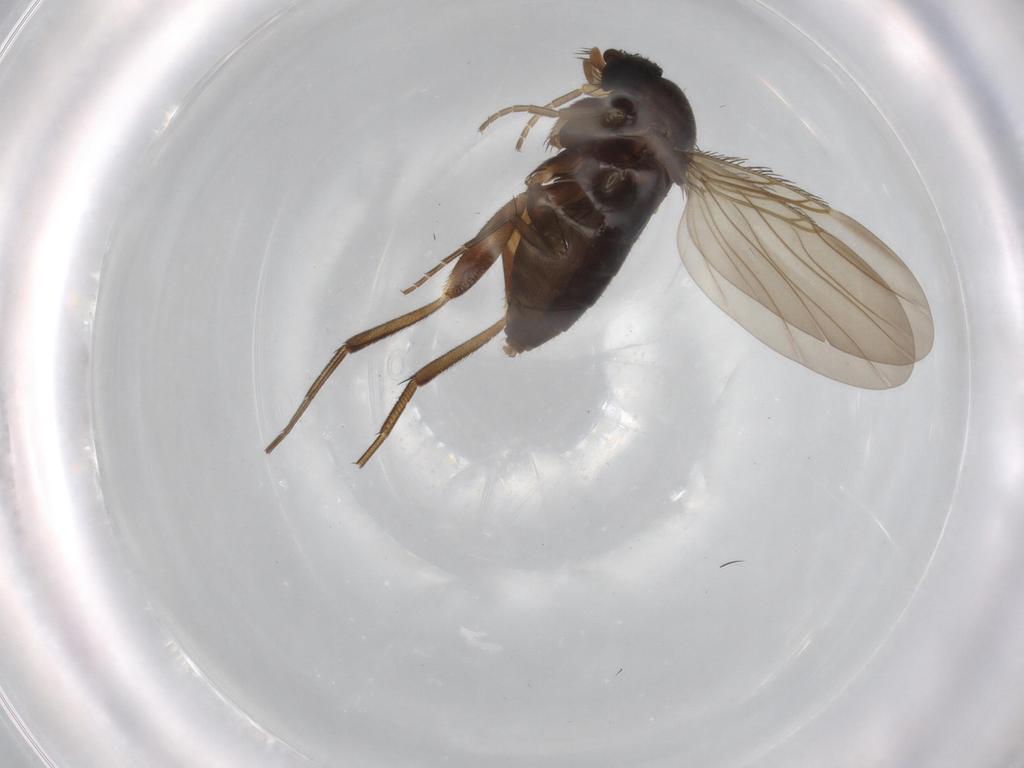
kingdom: Animalia
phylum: Arthropoda
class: Insecta
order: Diptera
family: Phoridae
